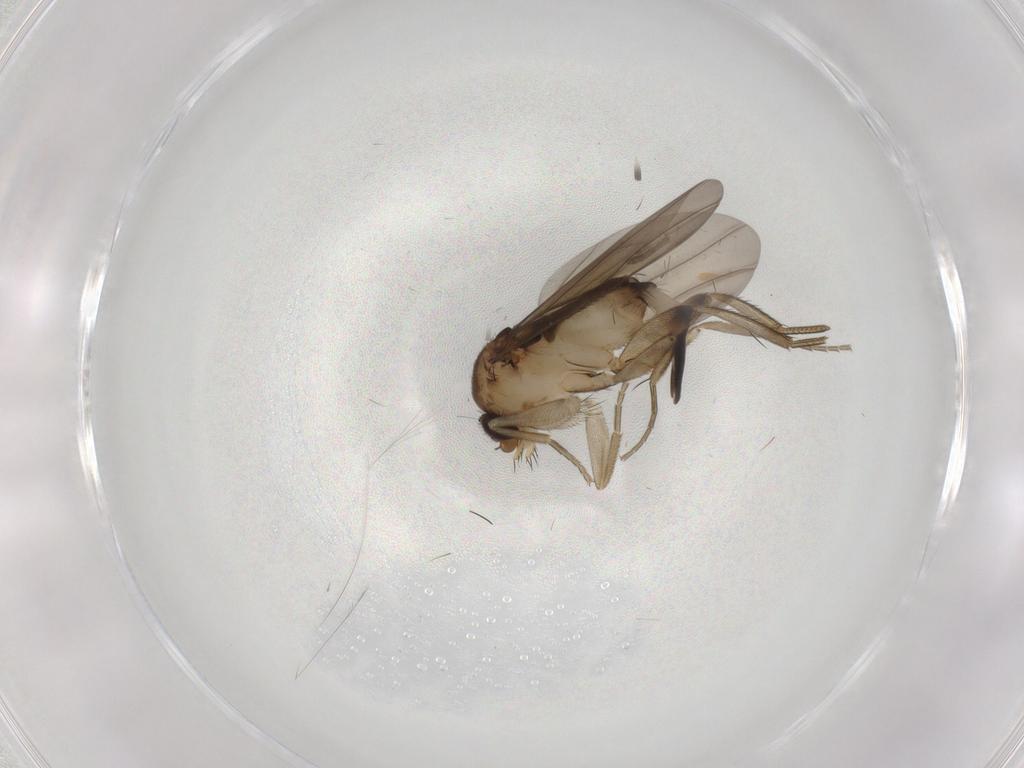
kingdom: Animalia
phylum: Arthropoda
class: Insecta
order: Diptera
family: Phoridae
